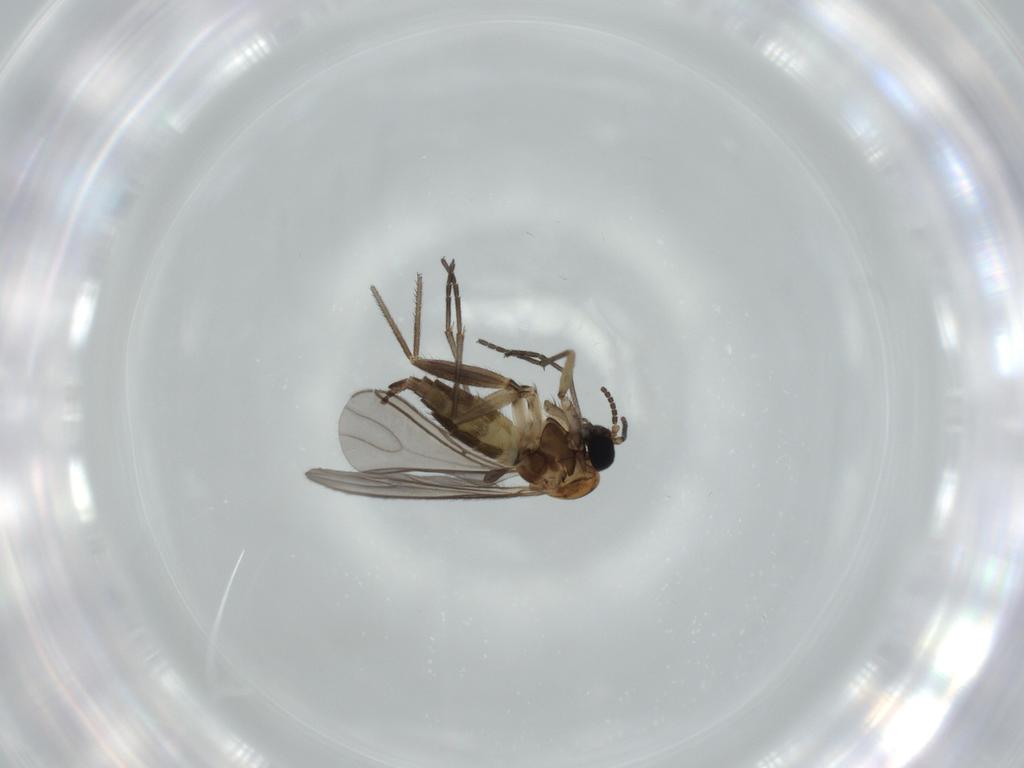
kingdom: Animalia
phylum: Arthropoda
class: Insecta
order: Diptera
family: Sciaridae
